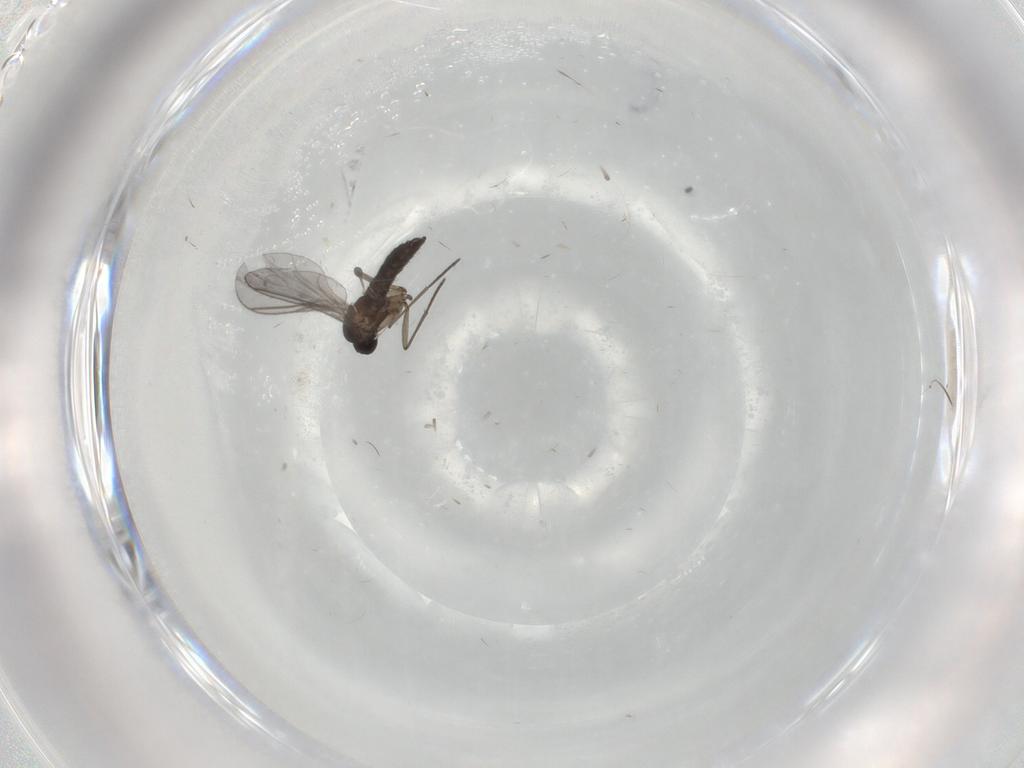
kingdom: Animalia
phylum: Arthropoda
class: Insecta
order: Diptera
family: Sciaridae
